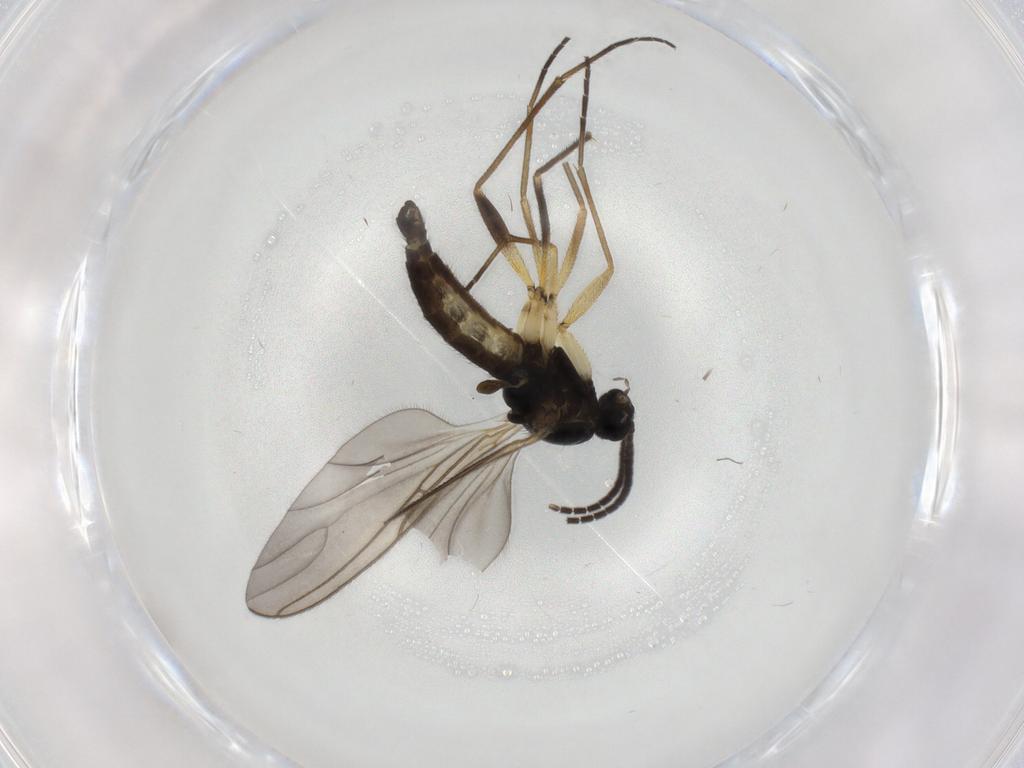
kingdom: Animalia
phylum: Arthropoda
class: Insecta
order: Diptera
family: Sciaridae
